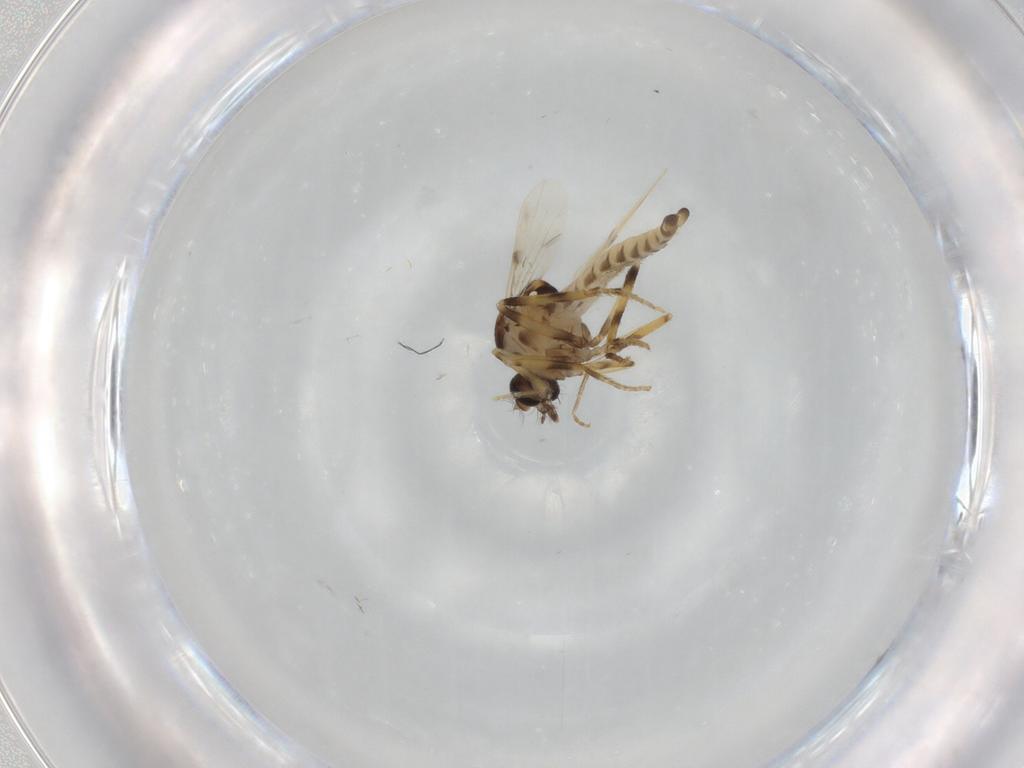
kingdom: Animalia
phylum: Arthropoda
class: Insecta
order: Diptera
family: Ceratopogonidae
